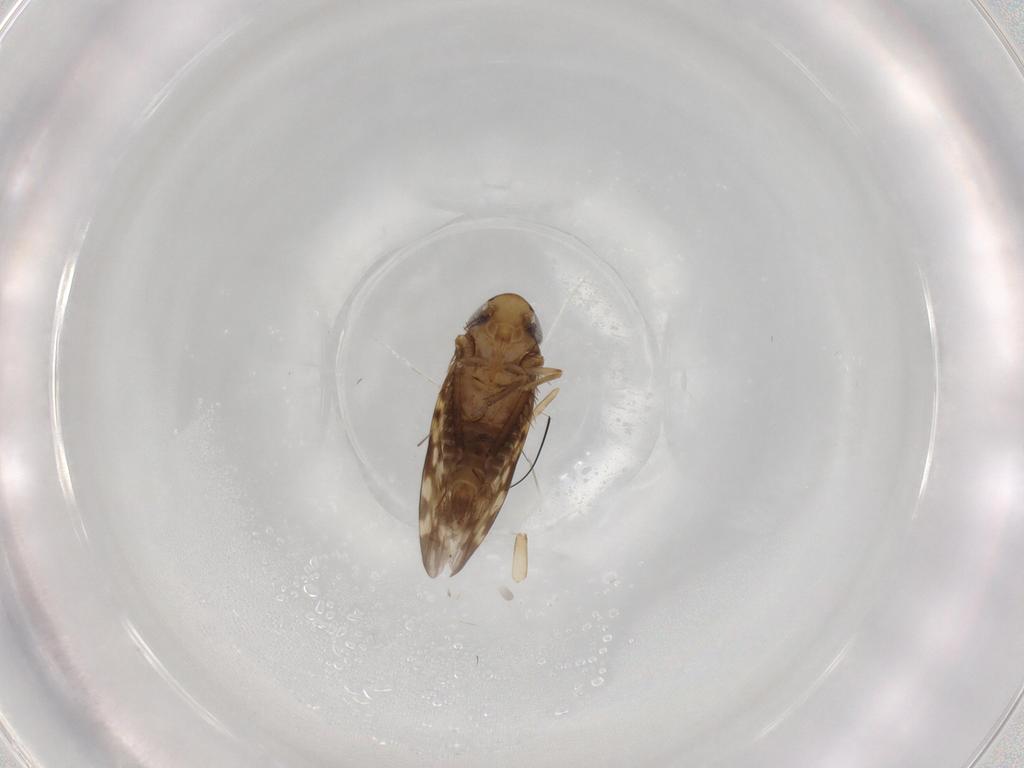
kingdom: Animalia
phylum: Arthropoda
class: Insecta
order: Hemiptera
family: Cicadellidae
